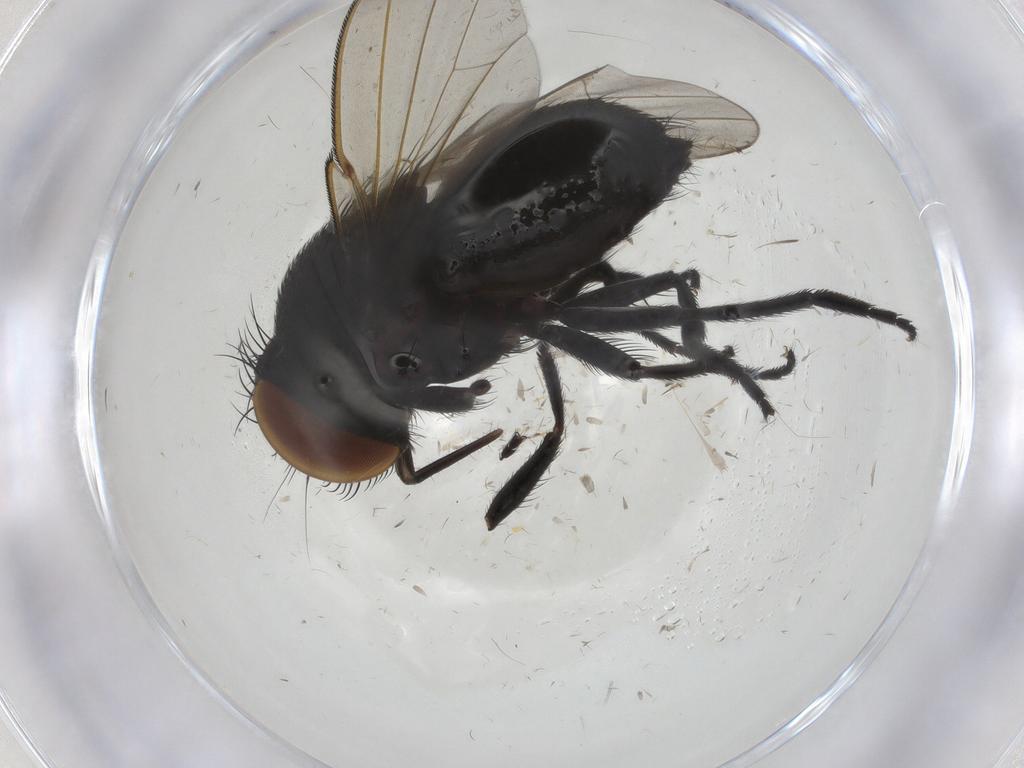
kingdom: Animalia
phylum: Arthropoda
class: Insecta
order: Diptera
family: Milichiidae
